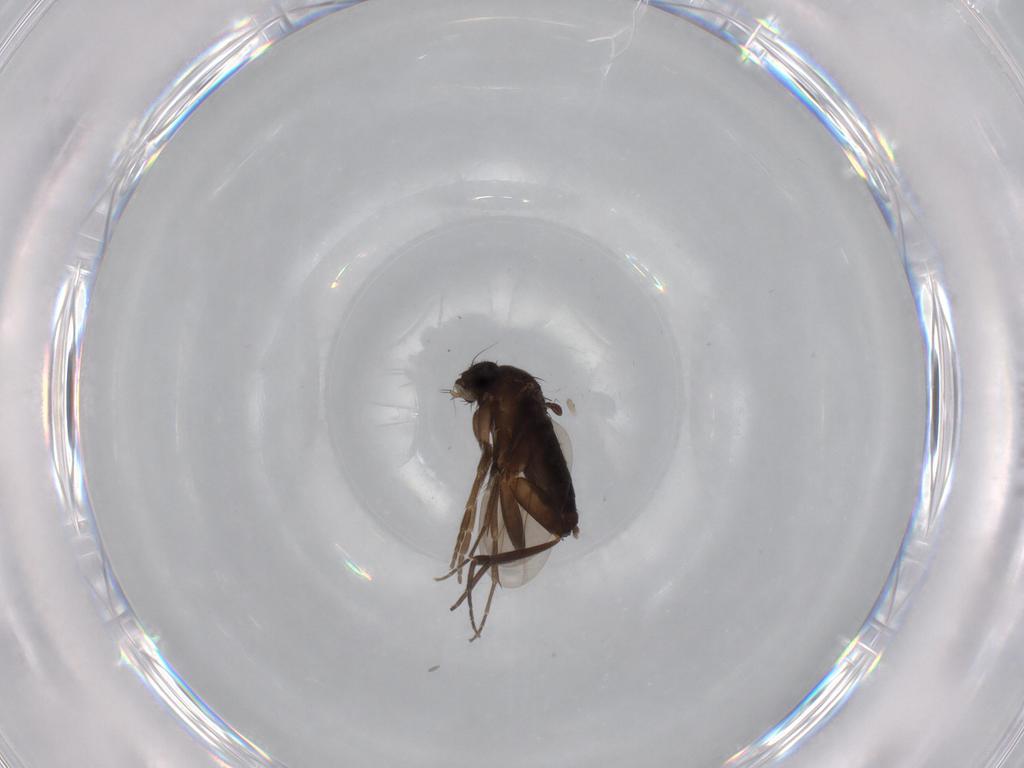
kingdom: Animalia
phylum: Arthropoda
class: Insecta
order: Diptera
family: Phoridae
